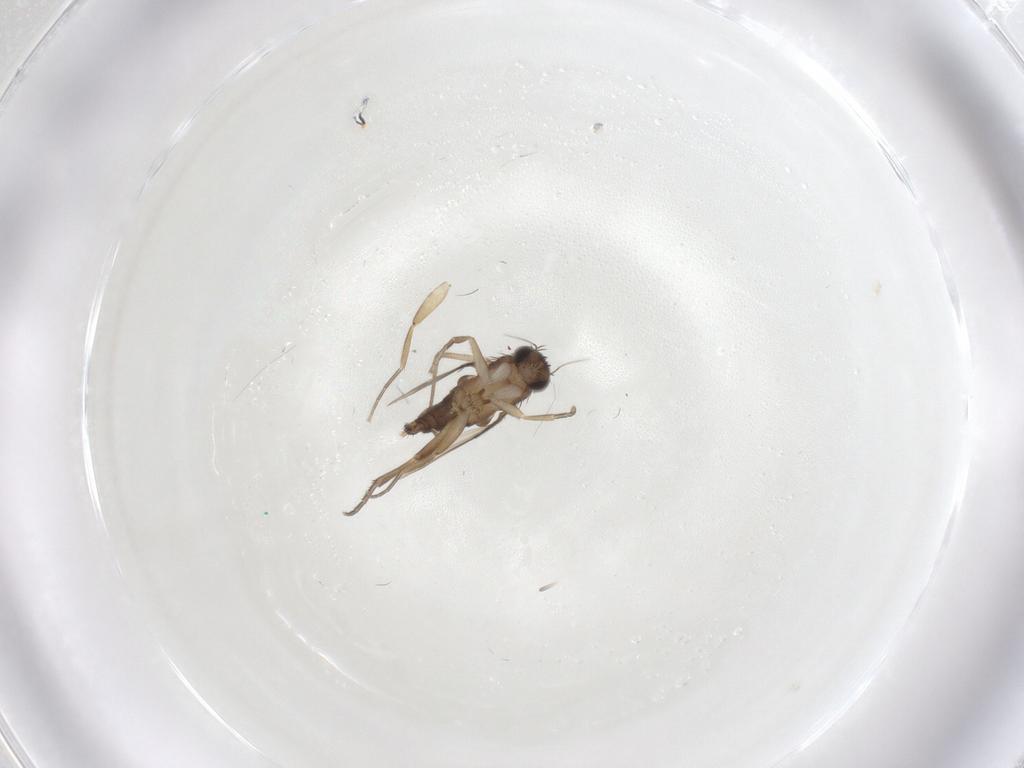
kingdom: Animalia
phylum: Arthropoda
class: Insecta
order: Diptera
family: Phoridae
